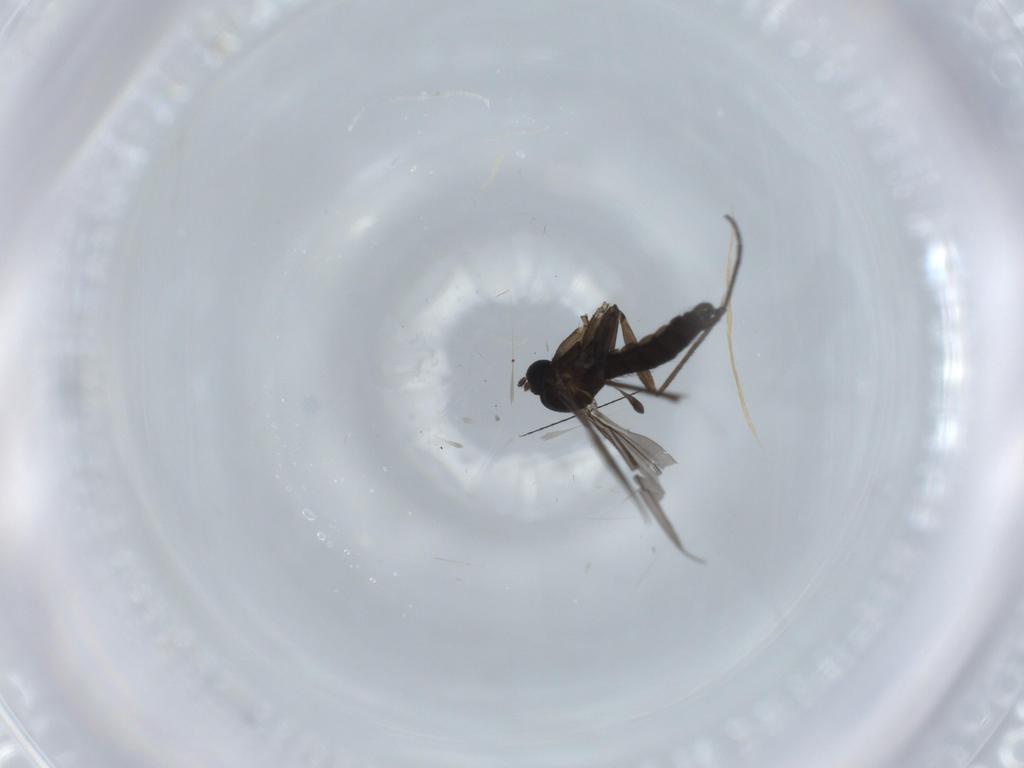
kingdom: Animalia
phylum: Arthropoda
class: Insecta
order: Diptera
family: Sciaridae
